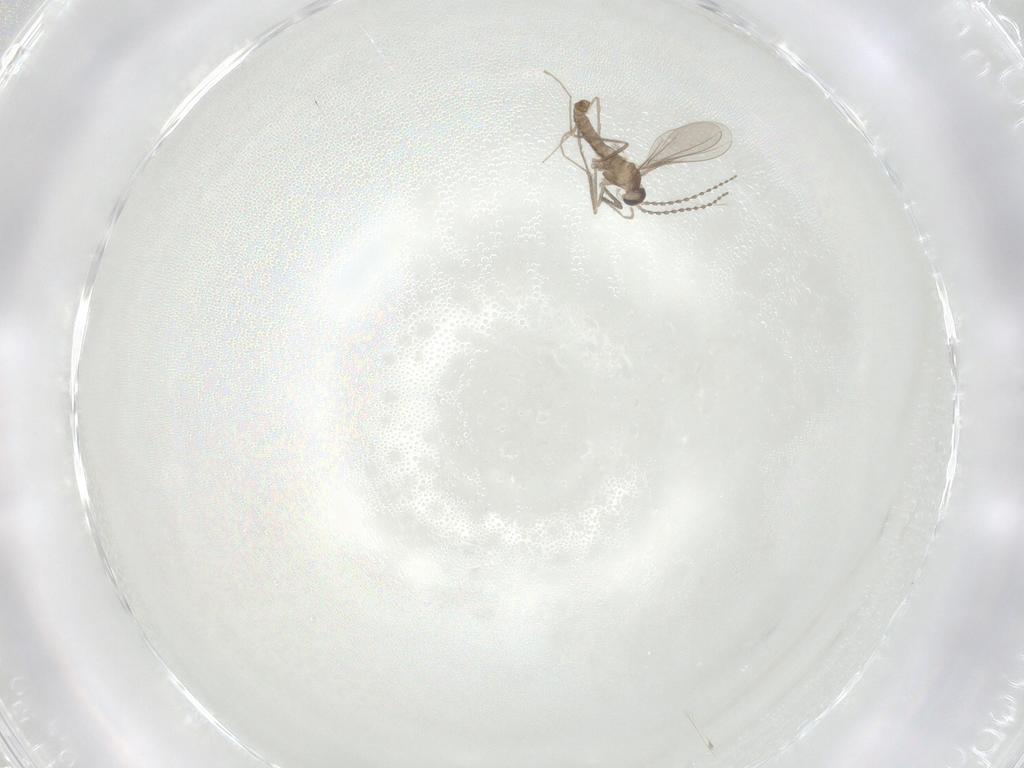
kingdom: Animalia
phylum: Arthropoda
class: Insecta
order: Diptera
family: Cecidomyiidae
